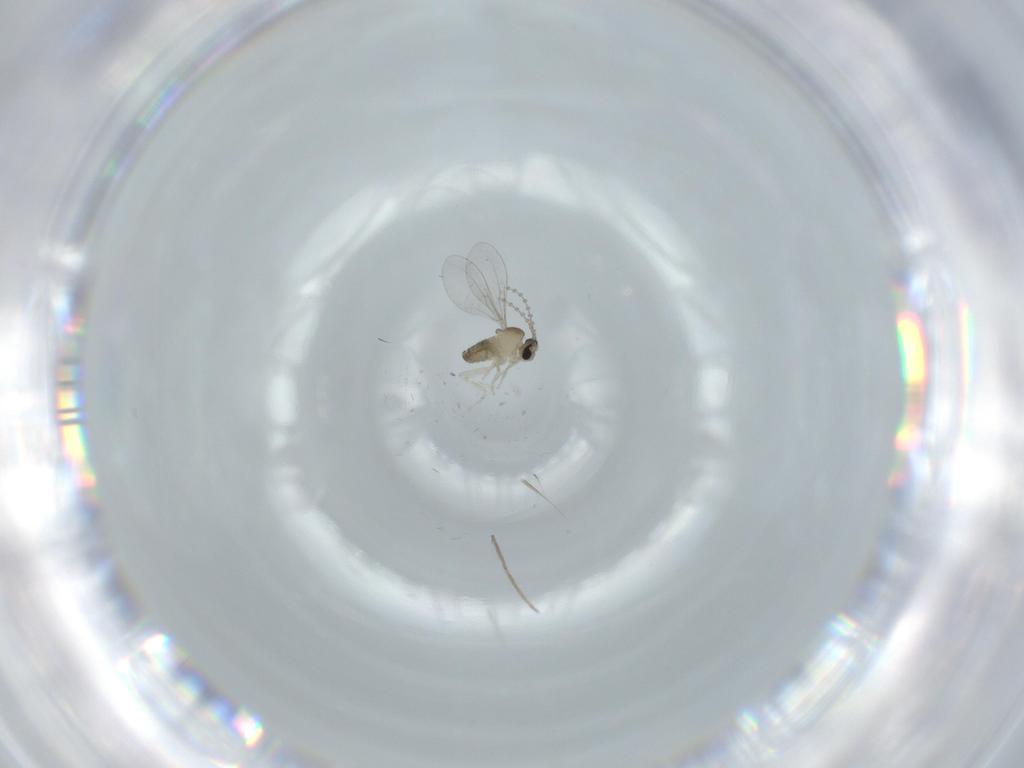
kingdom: Animalia
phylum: Arthropoda
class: Insecta
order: Diptera
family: Cecidomyiidae
